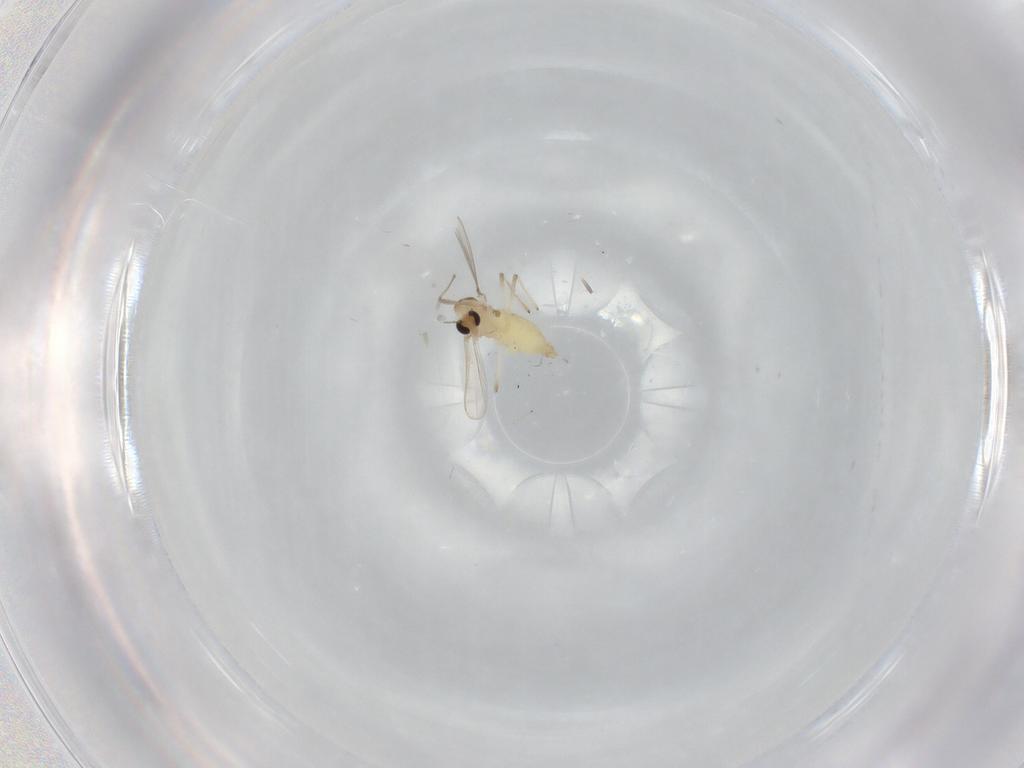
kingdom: Animalia
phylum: Arthropoda
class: Insecta
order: Diptera
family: Chironomidae
